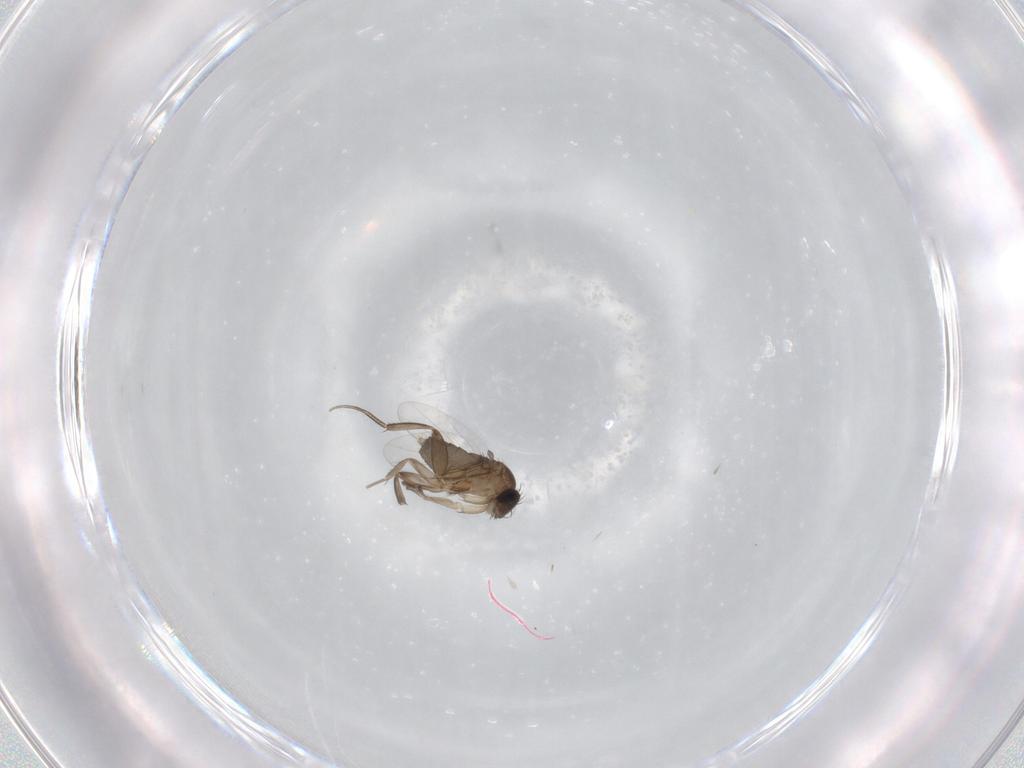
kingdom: Animalia
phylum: Arthropoda
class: Insecta
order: Diptera
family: Phoridae
